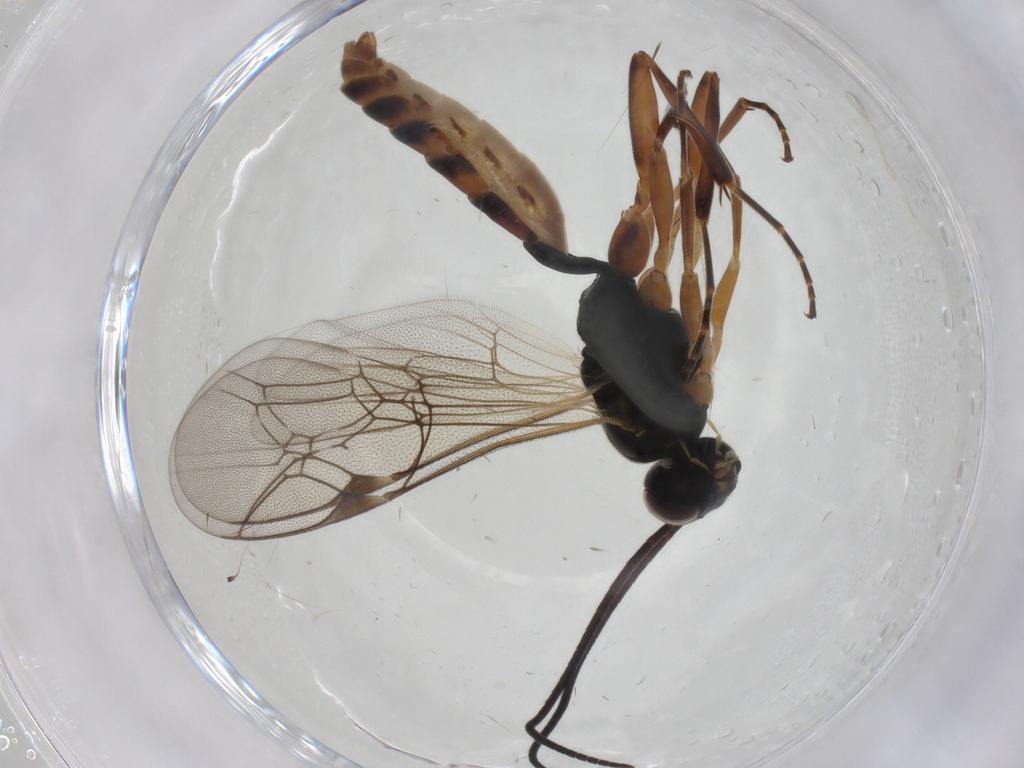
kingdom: Animalia
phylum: Arthropoda
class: Insecta
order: Hymenoptera
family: Ichneumonidae
